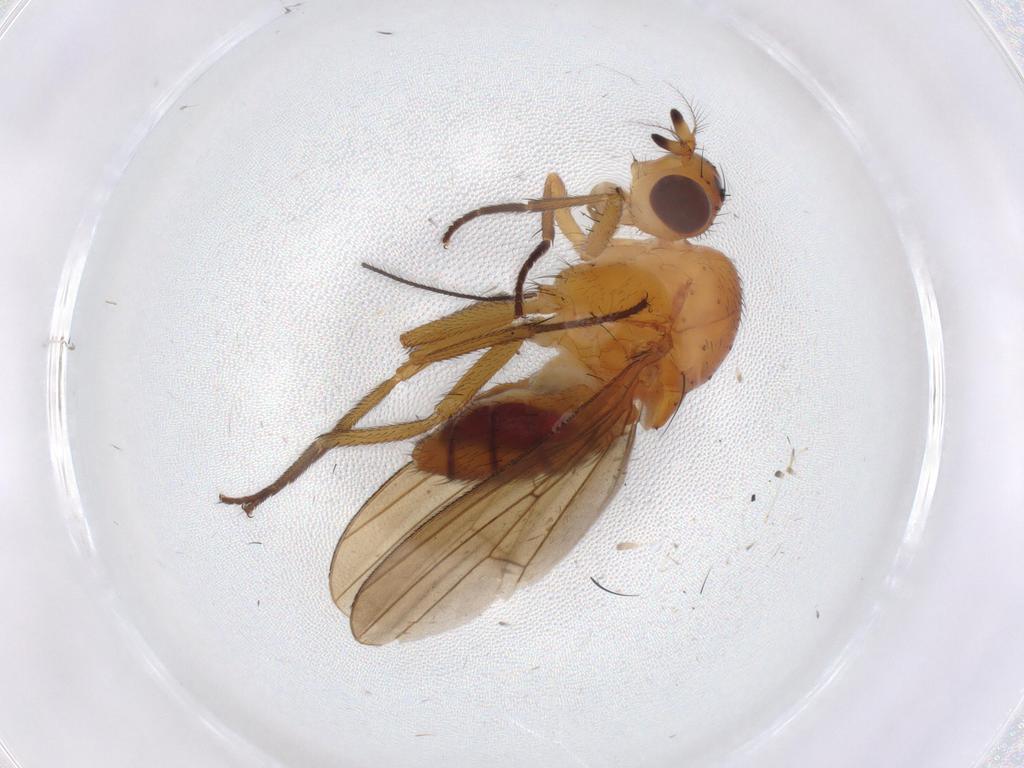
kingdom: Animalia
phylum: Arthropoda
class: Insecta
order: Diptera
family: Lauxaniidae
